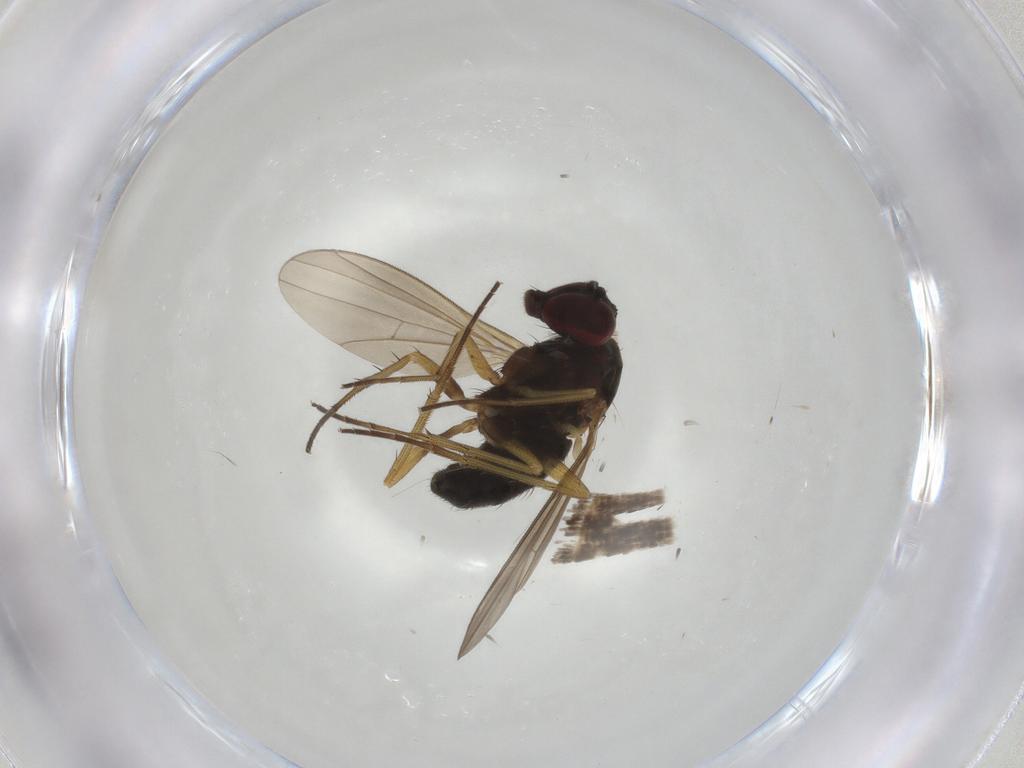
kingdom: Animalia
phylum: Arthropoda
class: Insecta
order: Diptera
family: Dolichopodidae
